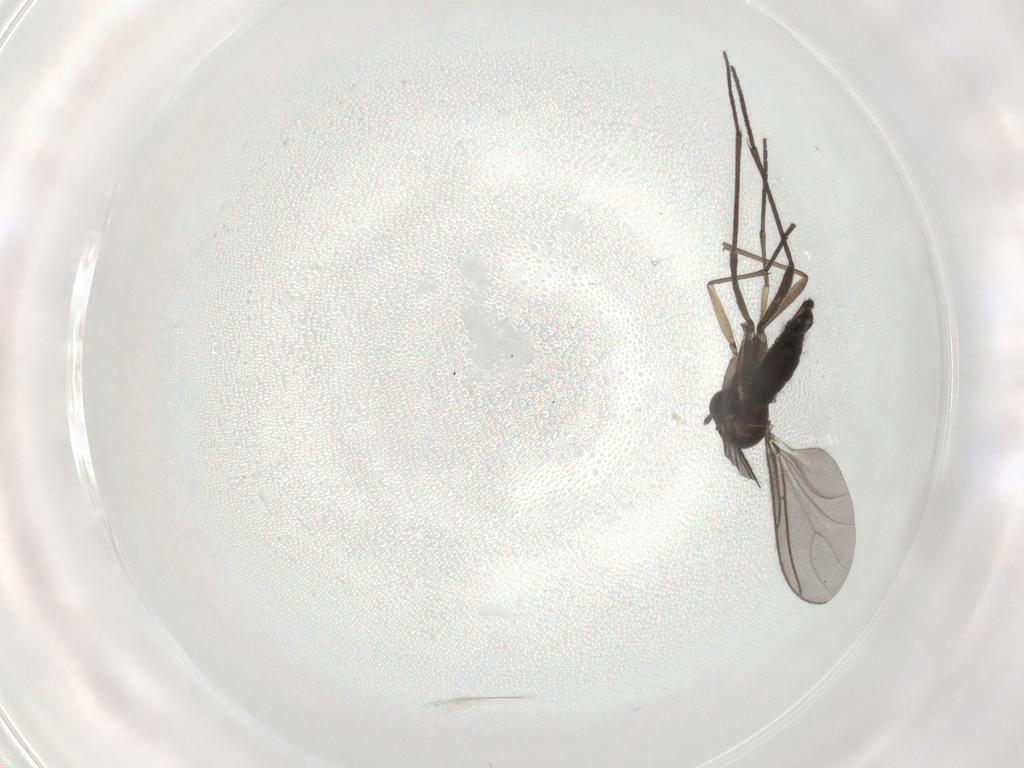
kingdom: Animalia
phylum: Arthropoda
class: Insecta
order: Diptera
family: Sciaridae
